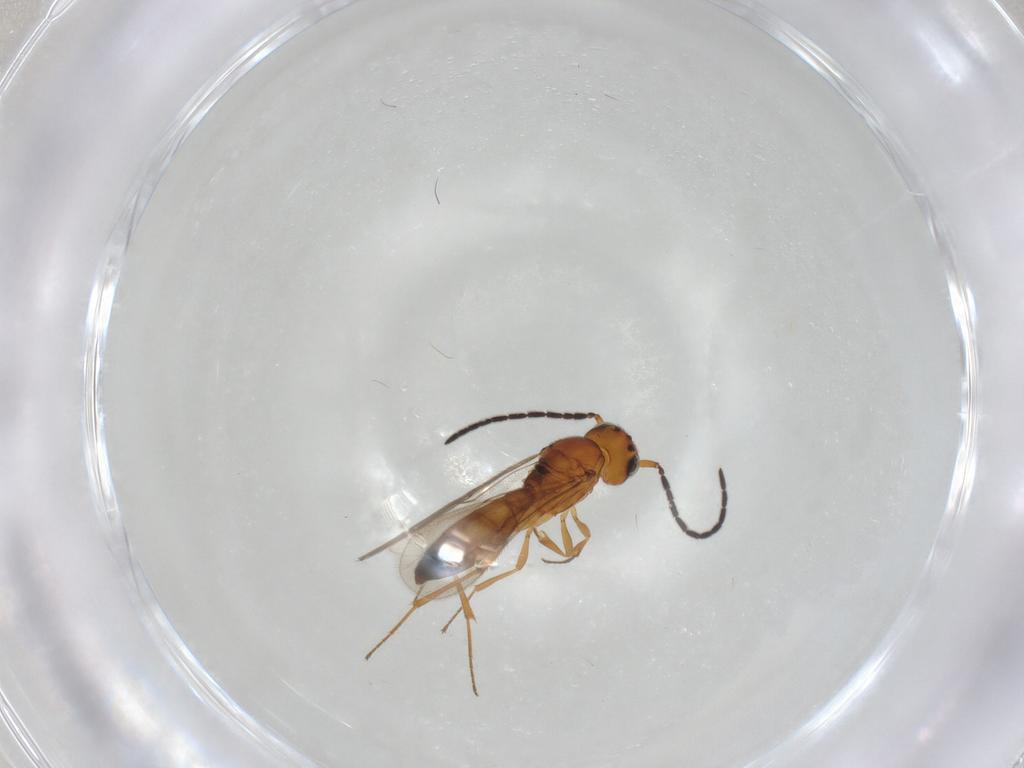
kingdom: Animalia
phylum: Arthropoda
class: Insecta
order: Hymenoptera
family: Scelionidae
